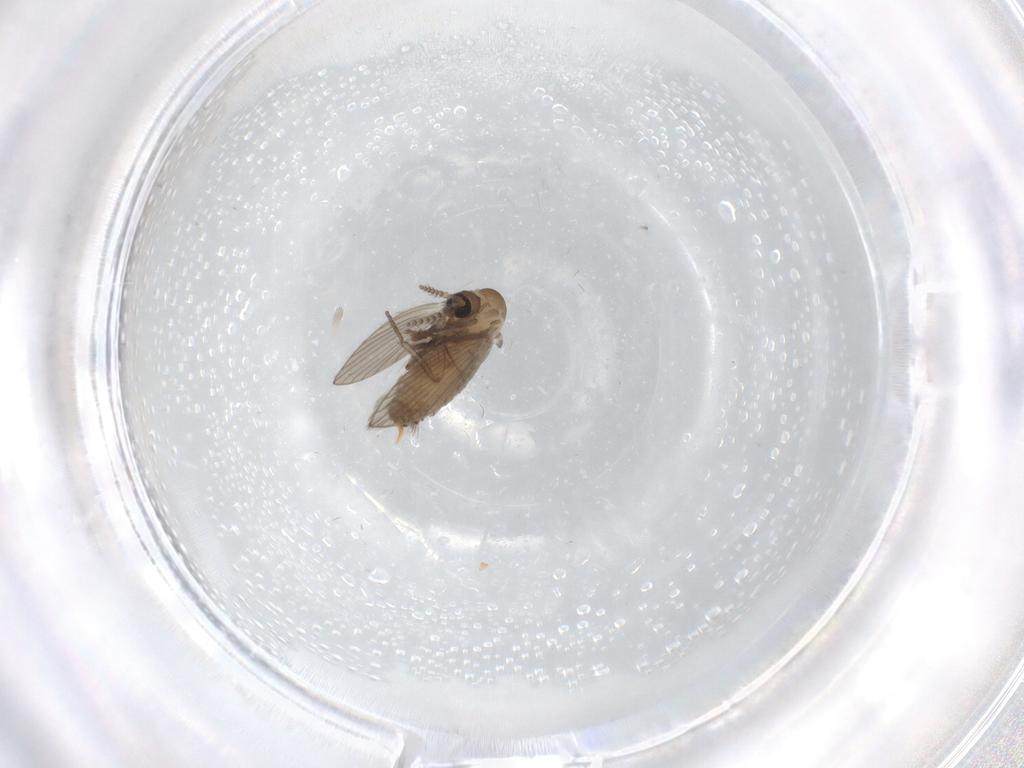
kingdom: Animalia
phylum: Arthropoda
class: Insecta
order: Diptera
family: Psychodidae
